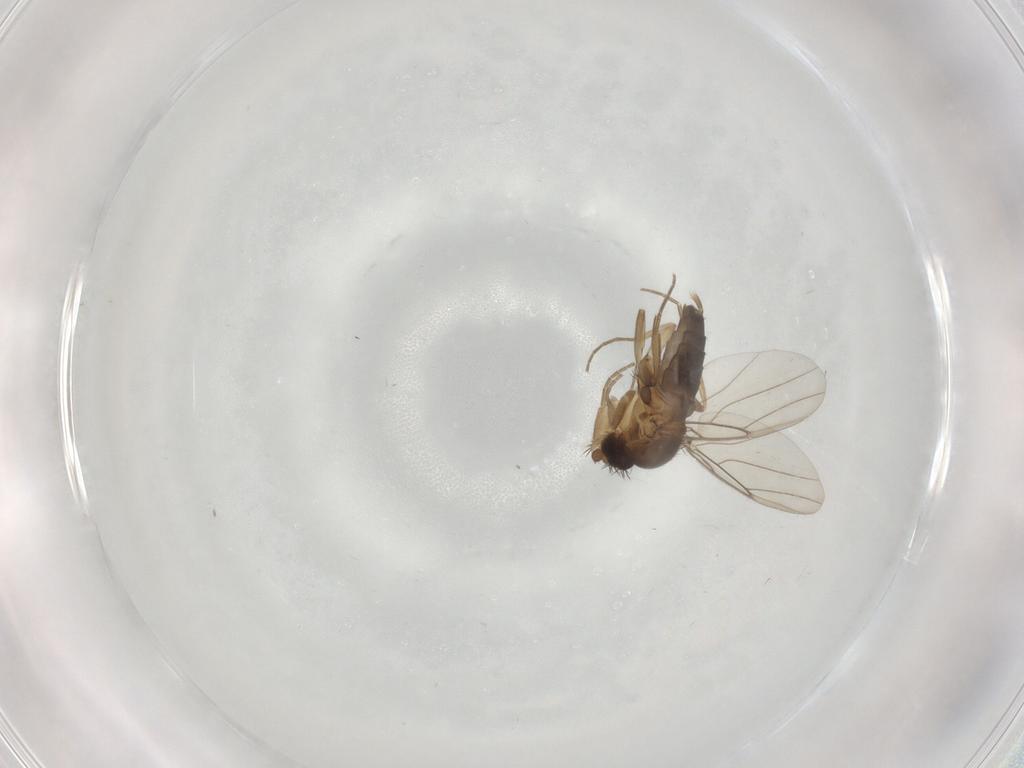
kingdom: Animalia
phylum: Arthropoda
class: Insecta
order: Diptera
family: Phoridae
